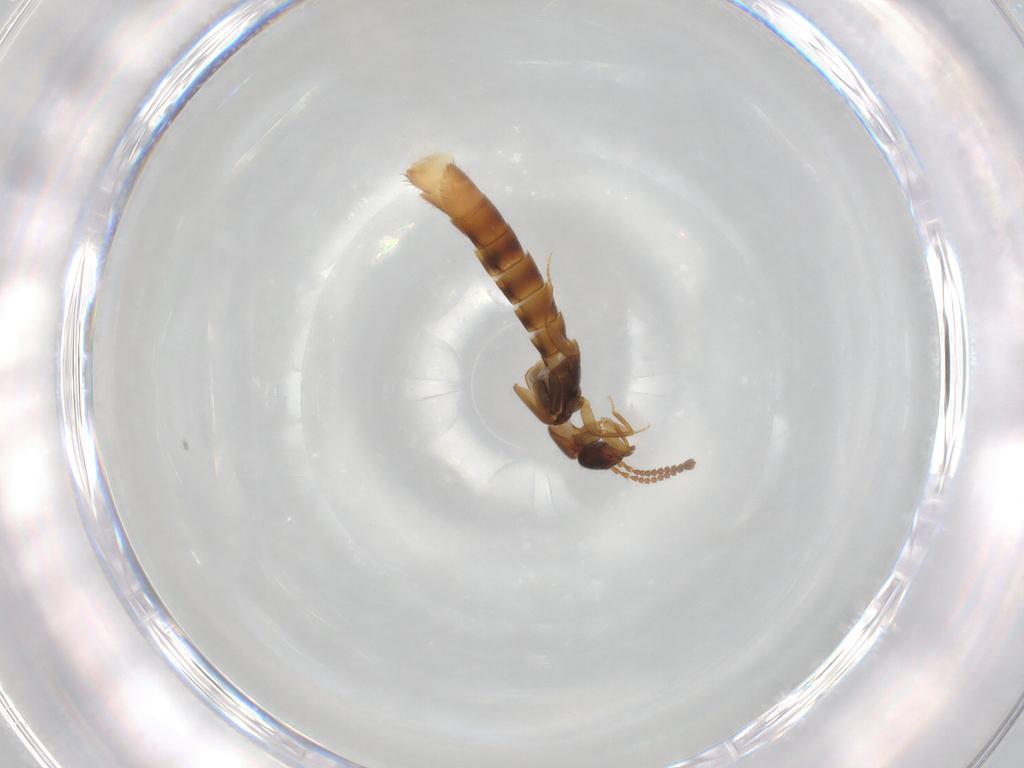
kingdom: Animalia
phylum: Arthropoda
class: Insecta
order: Coleoptera
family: Staphylinidae
